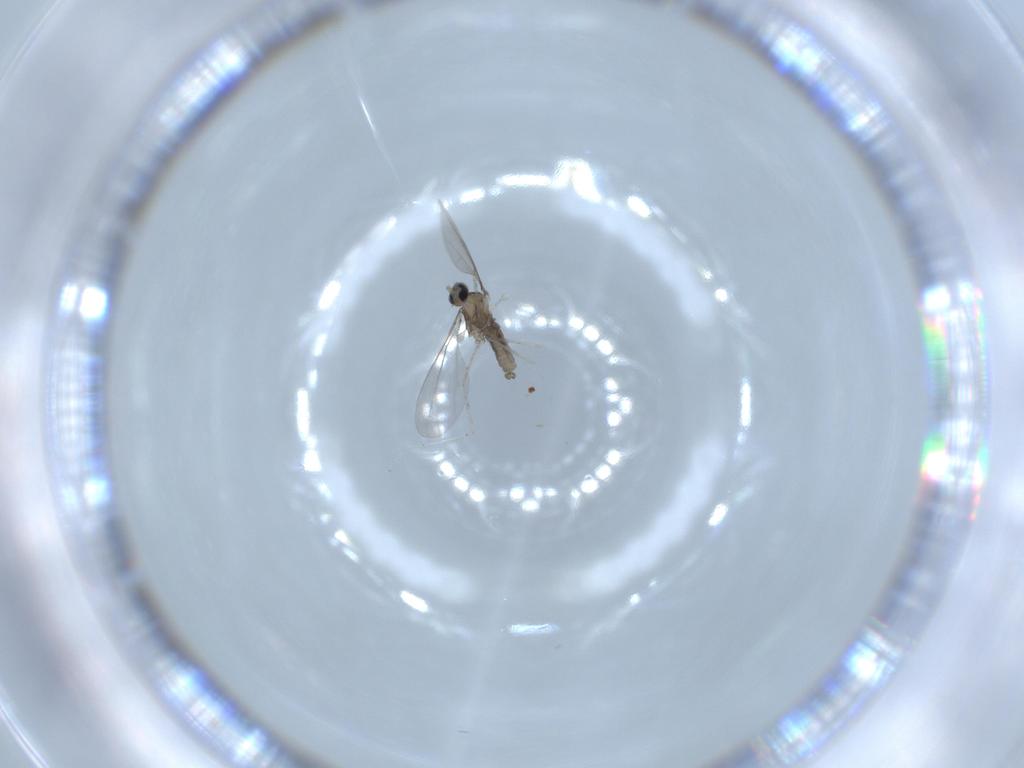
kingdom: Animalia
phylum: Arthropoda
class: Insecta
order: Diptera
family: Cecidomyiidae
